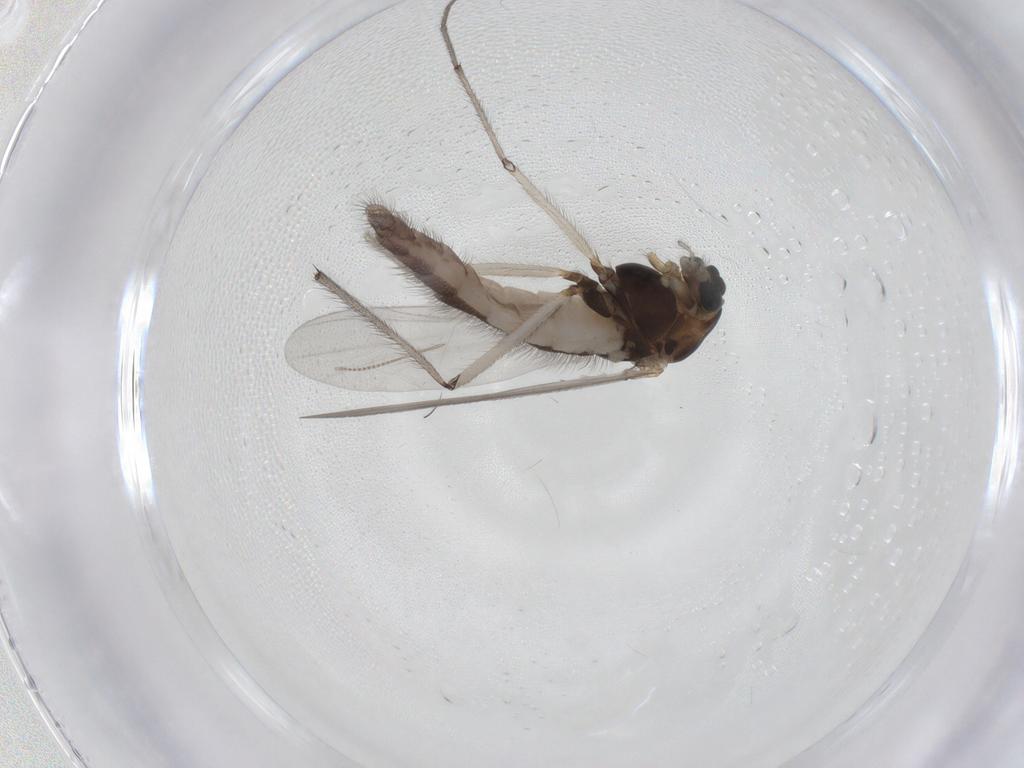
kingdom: Animalia
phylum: Arthropoda
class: Insecta
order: Diptera
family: Chironomidae
